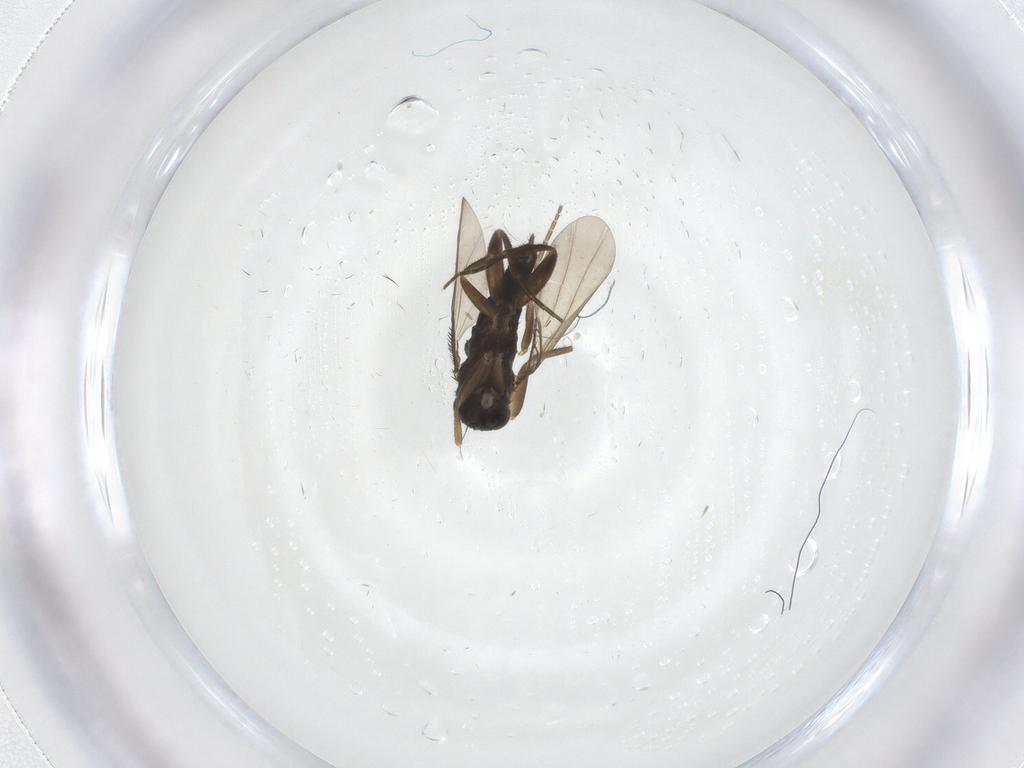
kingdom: Animalia
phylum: Arthropoda
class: Insecta
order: Diptera
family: Phoridae
